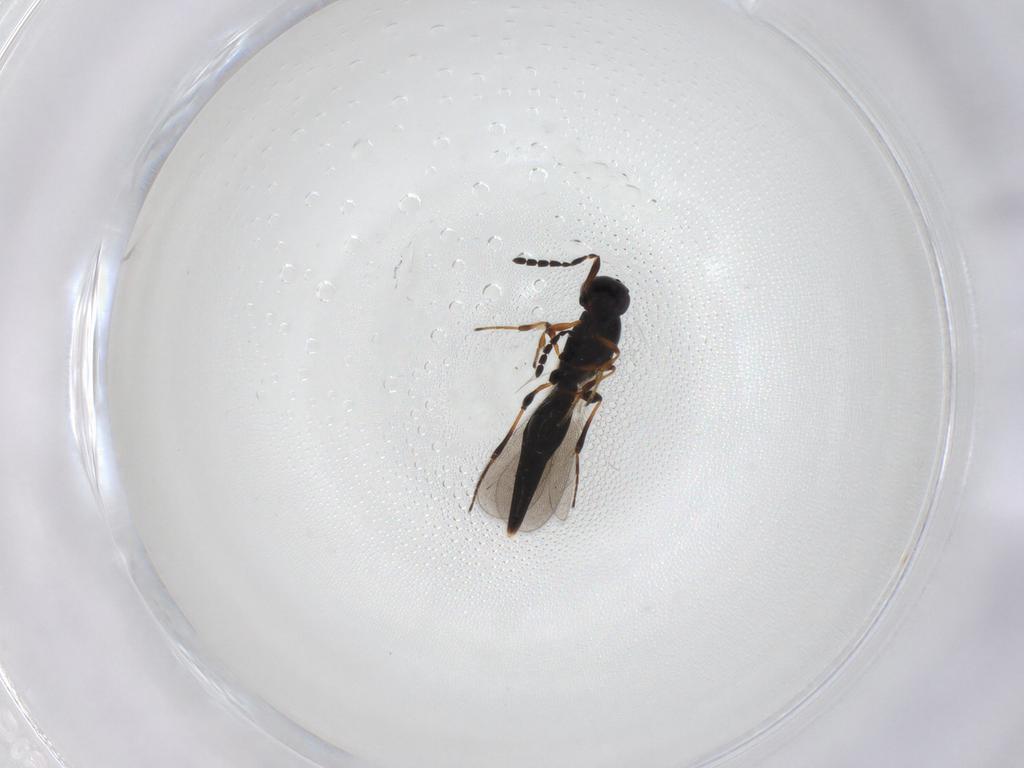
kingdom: Animalia
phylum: Arthropoda
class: Insecta
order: Hymenoptera
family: Platygastridae
